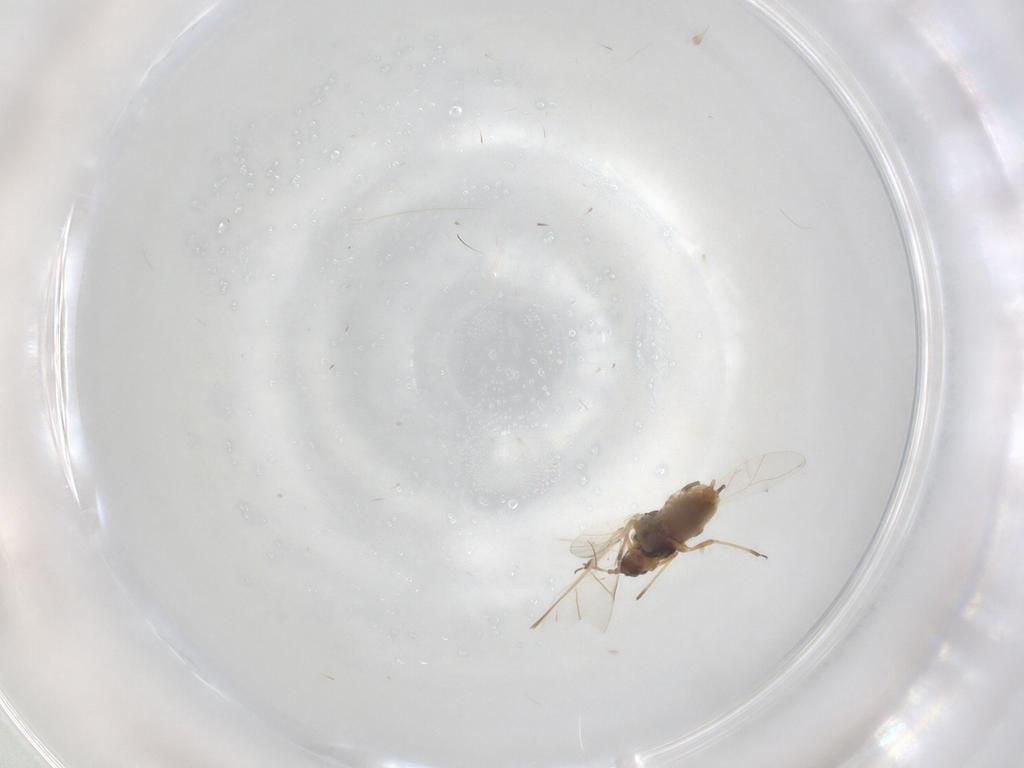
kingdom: Animalia
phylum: Arthropoda
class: Insecta
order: Hemiptera
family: Aphididae
